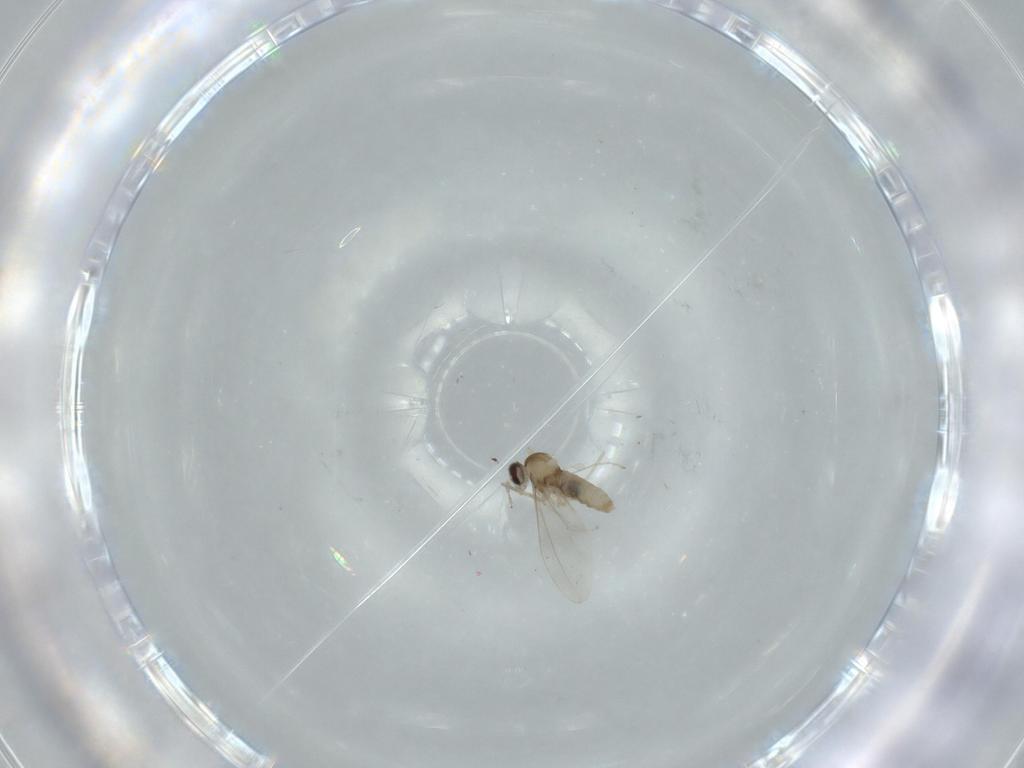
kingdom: Animalia
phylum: Arthropoda
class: Insecta
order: Diptera
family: Cecidomyiidae
